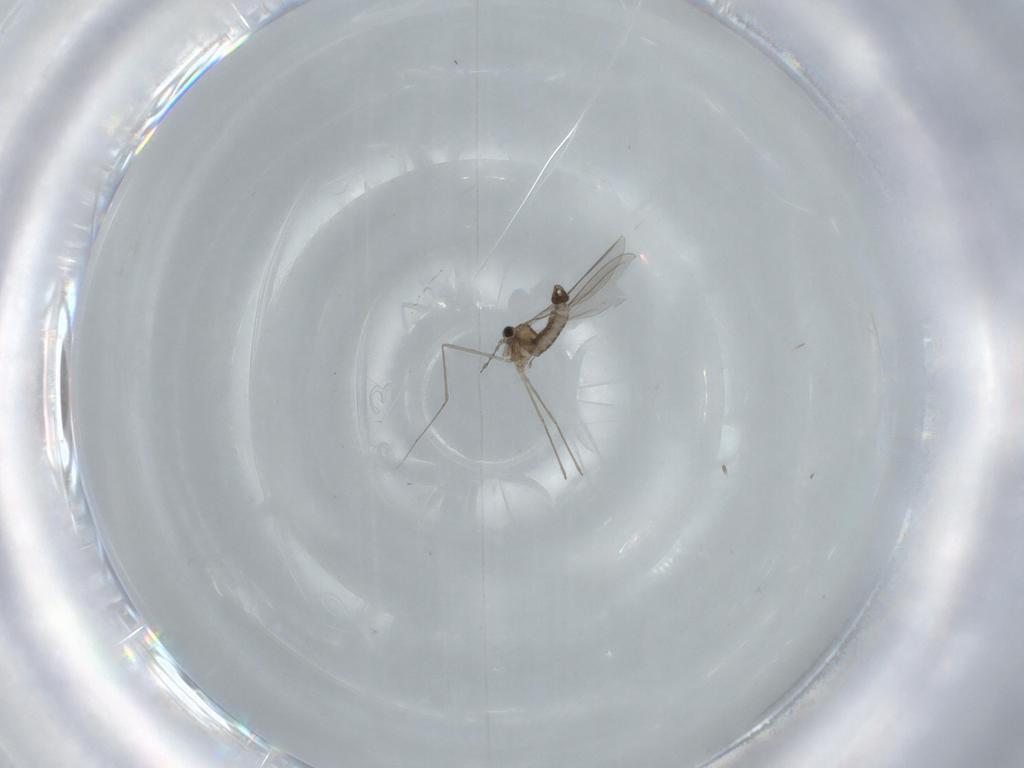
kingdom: Animalia
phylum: Arthropoda
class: Insecta
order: Diptera
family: Cecidomyiidae
